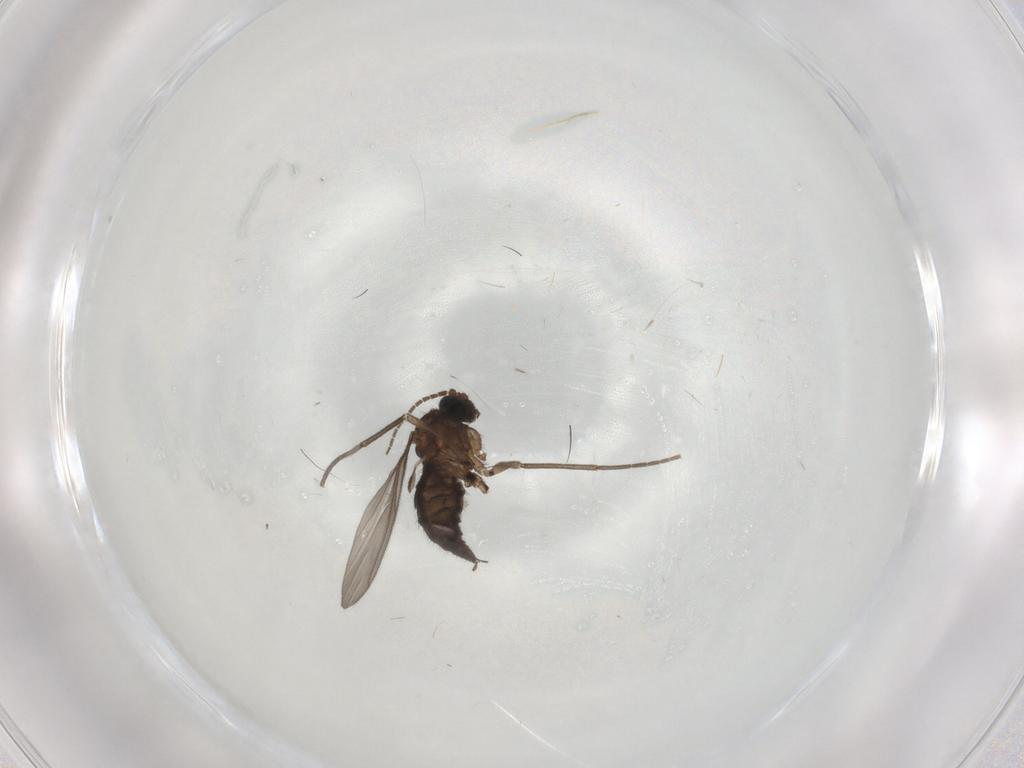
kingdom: Animalia
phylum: Arthropoda
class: Insecta
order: Diptera
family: Sciaridae
